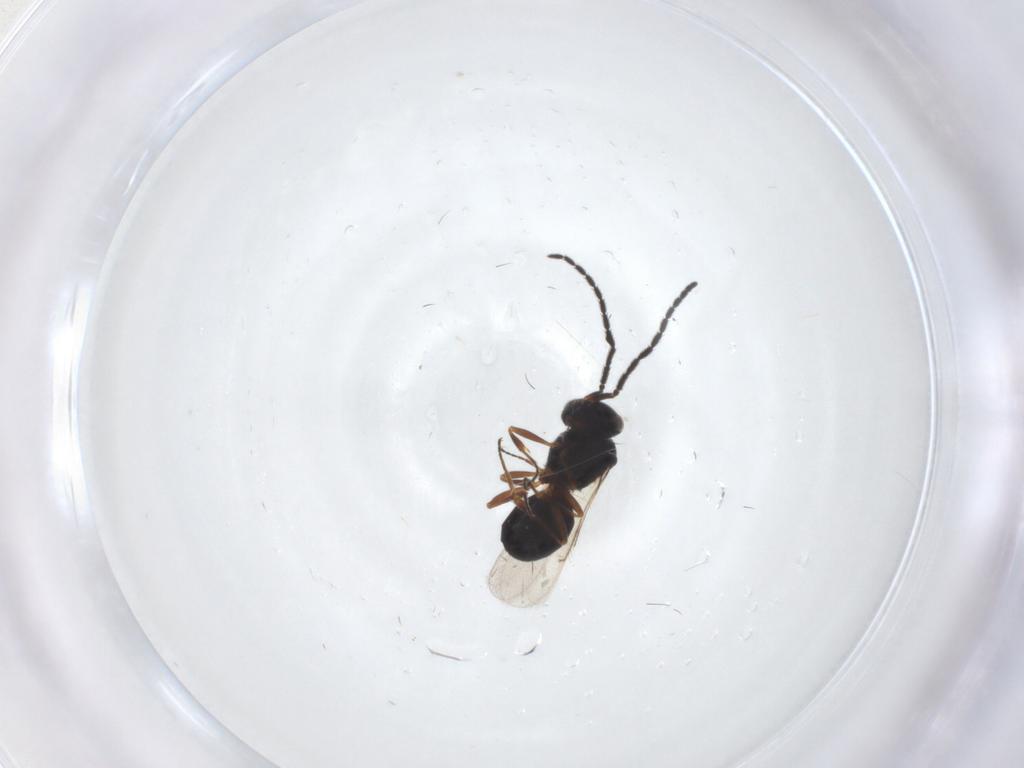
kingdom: Animalia
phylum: Arthropoda
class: Insecta
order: Hymenoptera
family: Scelionidae
